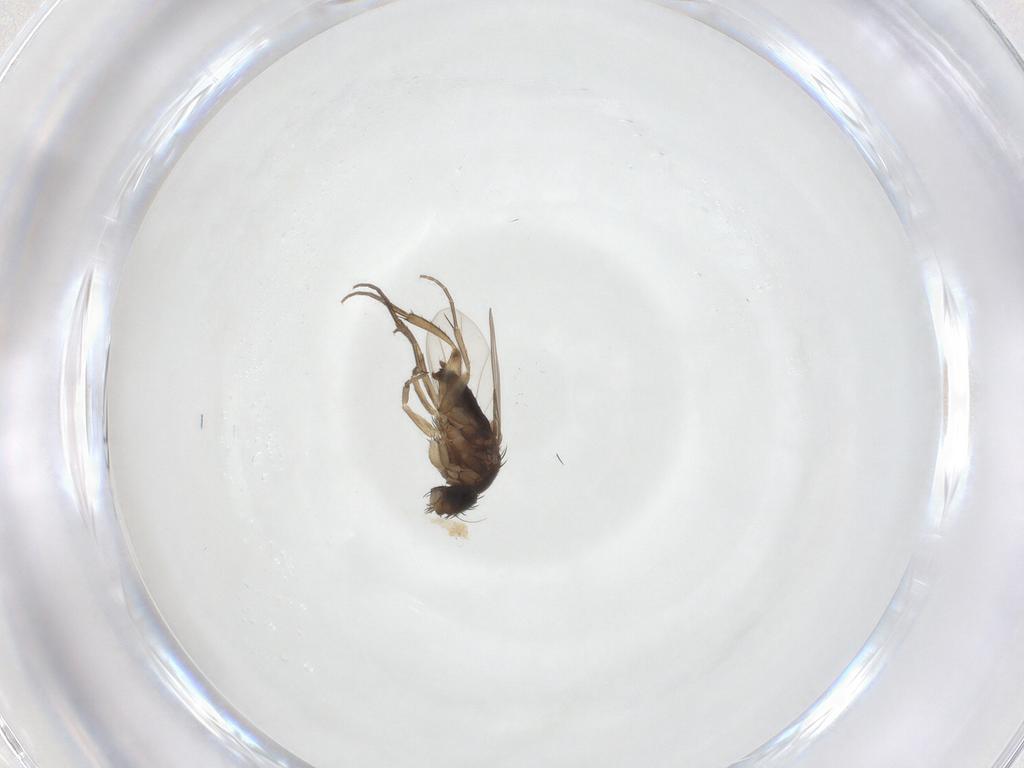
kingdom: Animalia
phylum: Arthropoda
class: Insecta
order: Diptera
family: Phoridae
